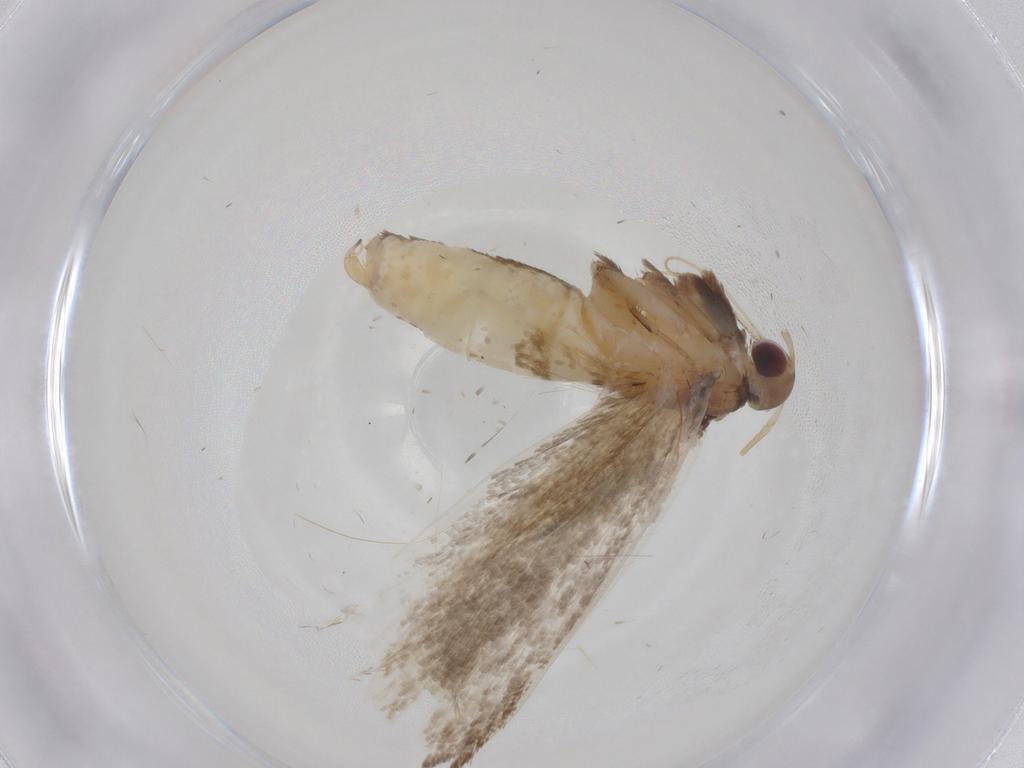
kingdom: Animalia
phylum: Arthropoda
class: Insecta
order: Lepidoptera
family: Crambidae
